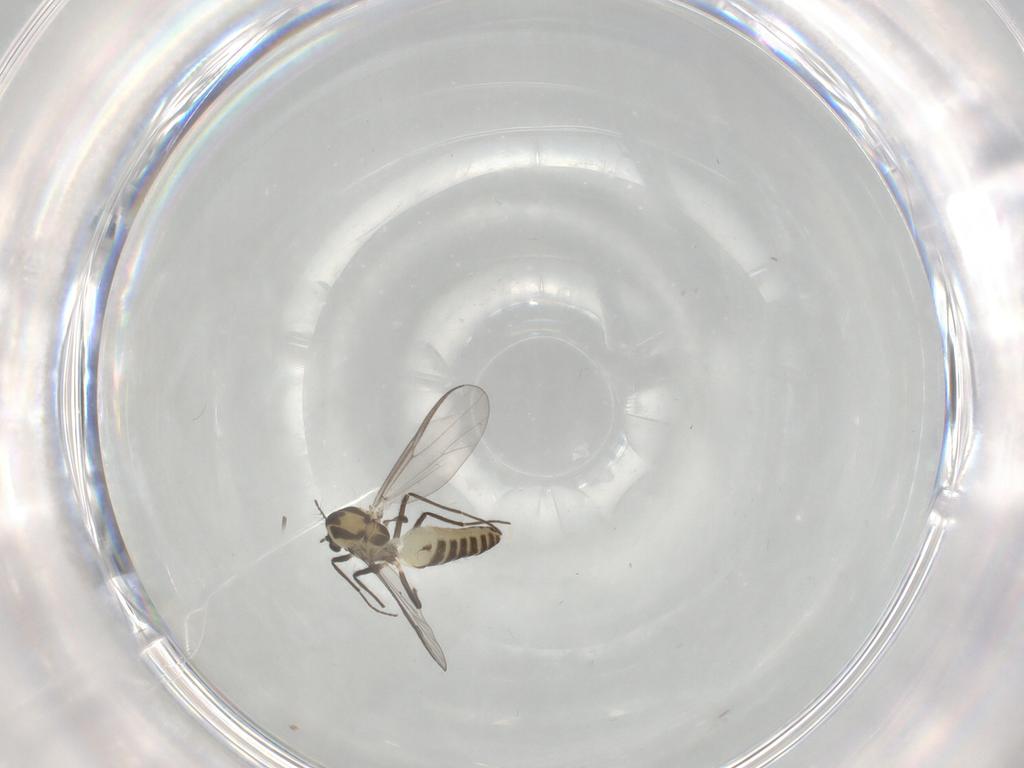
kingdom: Animalia
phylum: Arthropoda
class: Insecta
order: Diptera
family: Chironomidae
